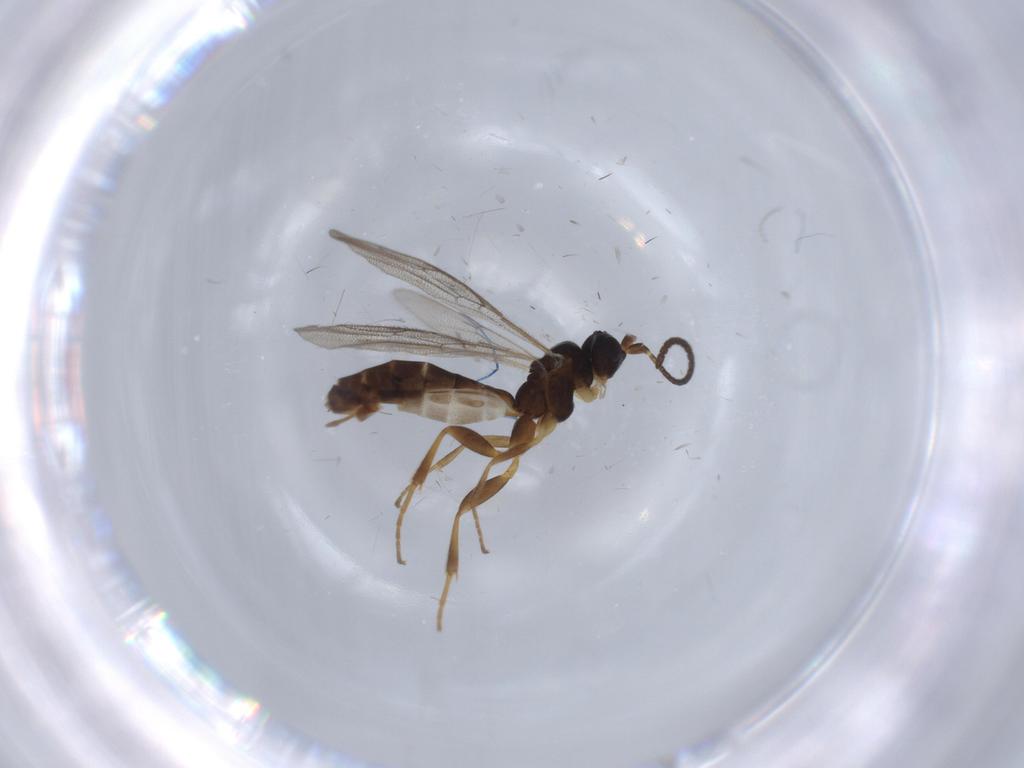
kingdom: Animalia
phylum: Arthropoda
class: Insecta
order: Hymenoptera
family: Ichneumonidae
